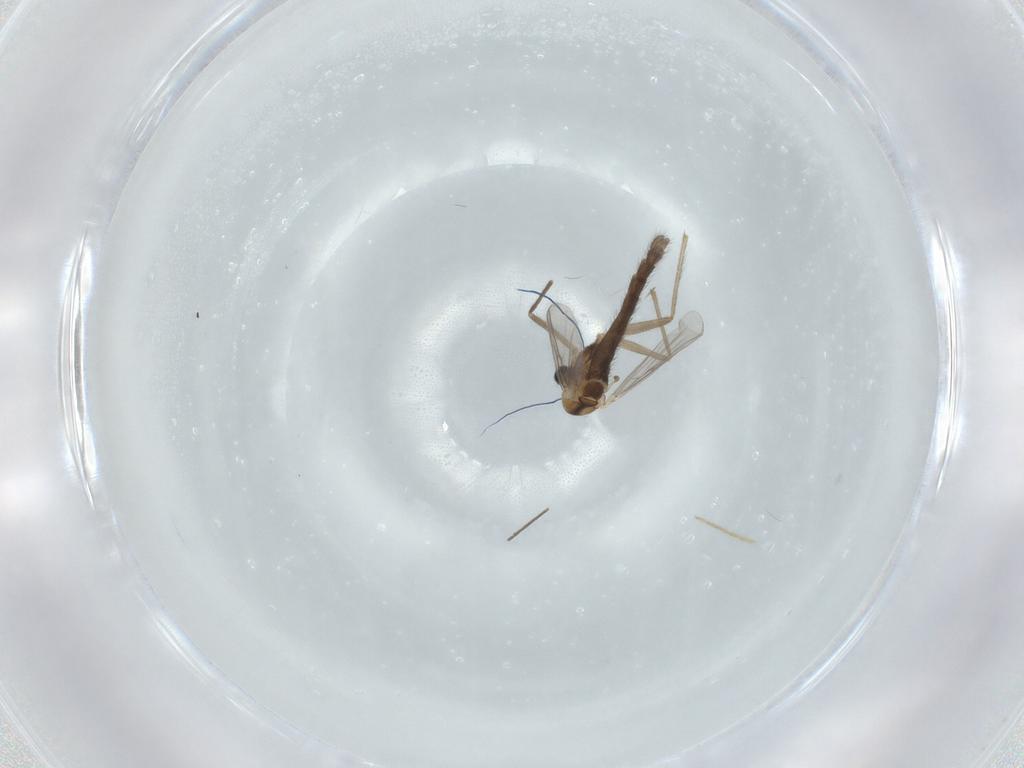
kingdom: Animalia
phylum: Arthropoda
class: Insecta
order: Diptera
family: Chironomidae
